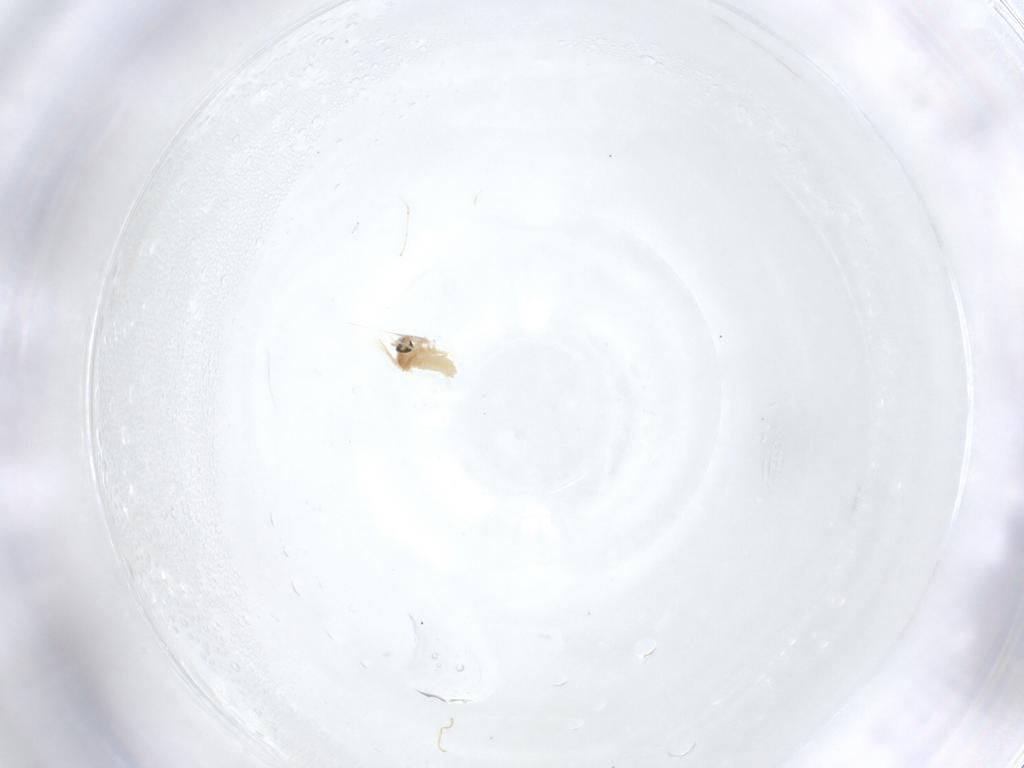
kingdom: Animalia
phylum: Arthropoda
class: Insecta
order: Diptera
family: Cecidomyiidae
